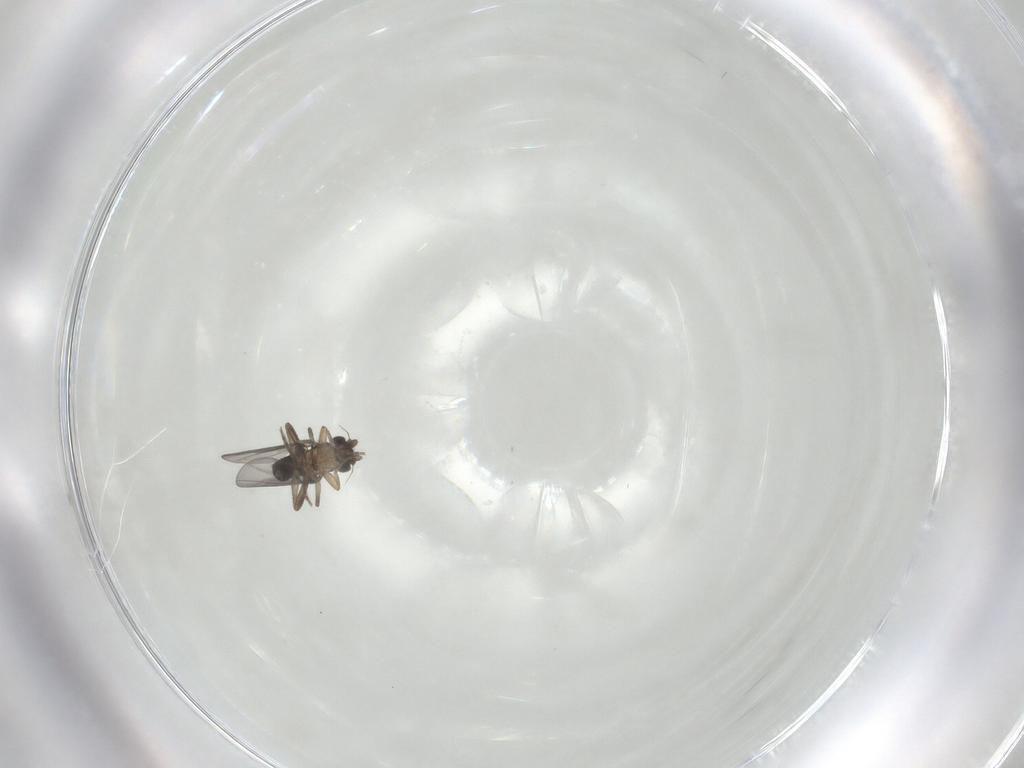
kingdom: Animalia
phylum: Arthropoda
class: Insecta
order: Diptera
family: Chironomidae
